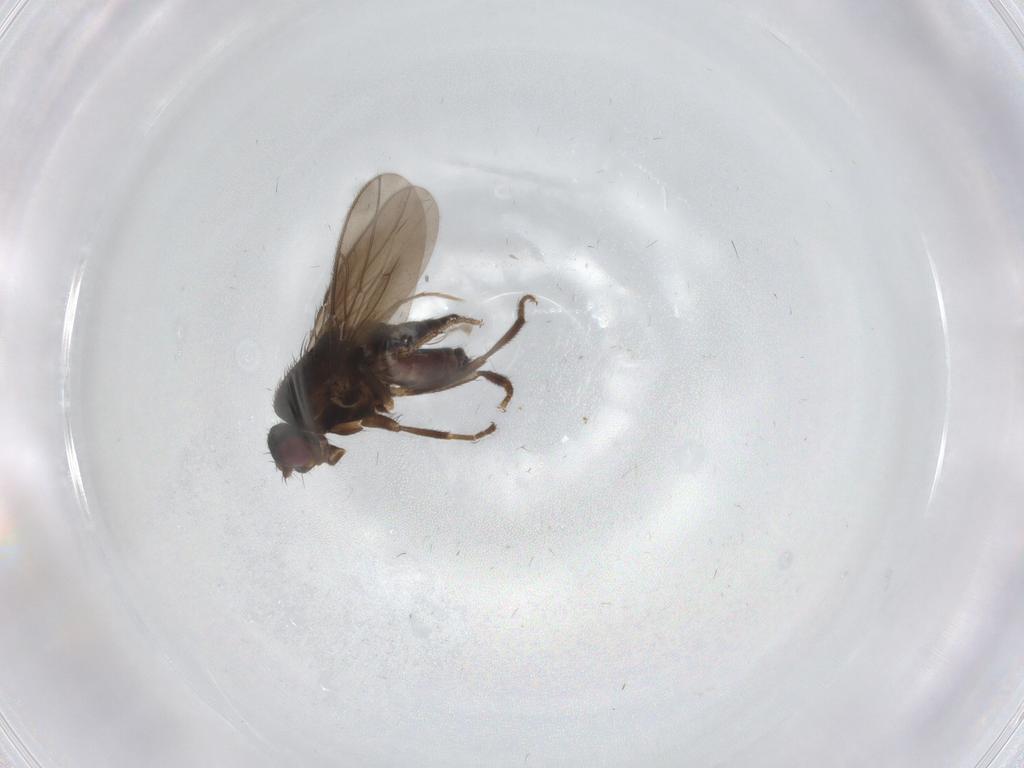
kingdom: Animalia
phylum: Arthropoda
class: Insecta
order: Diptera
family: Sphaeroceridae
